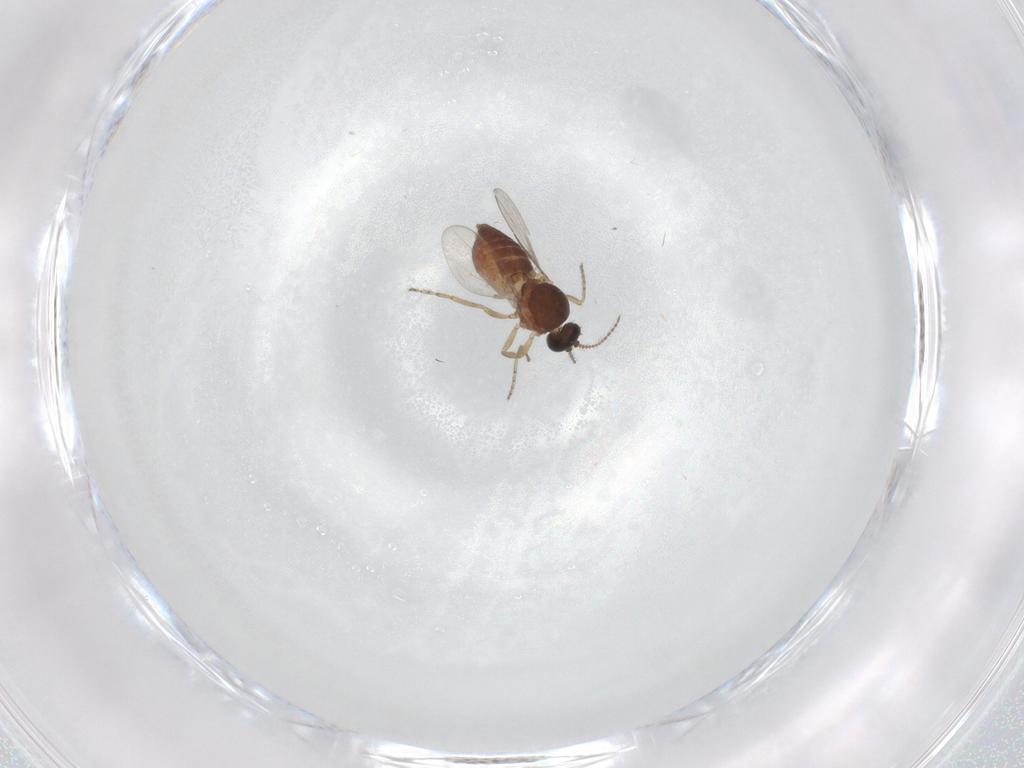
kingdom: Animalia
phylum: Arthropoda
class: Insecta
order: Diptera
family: Ceratopogonidae
